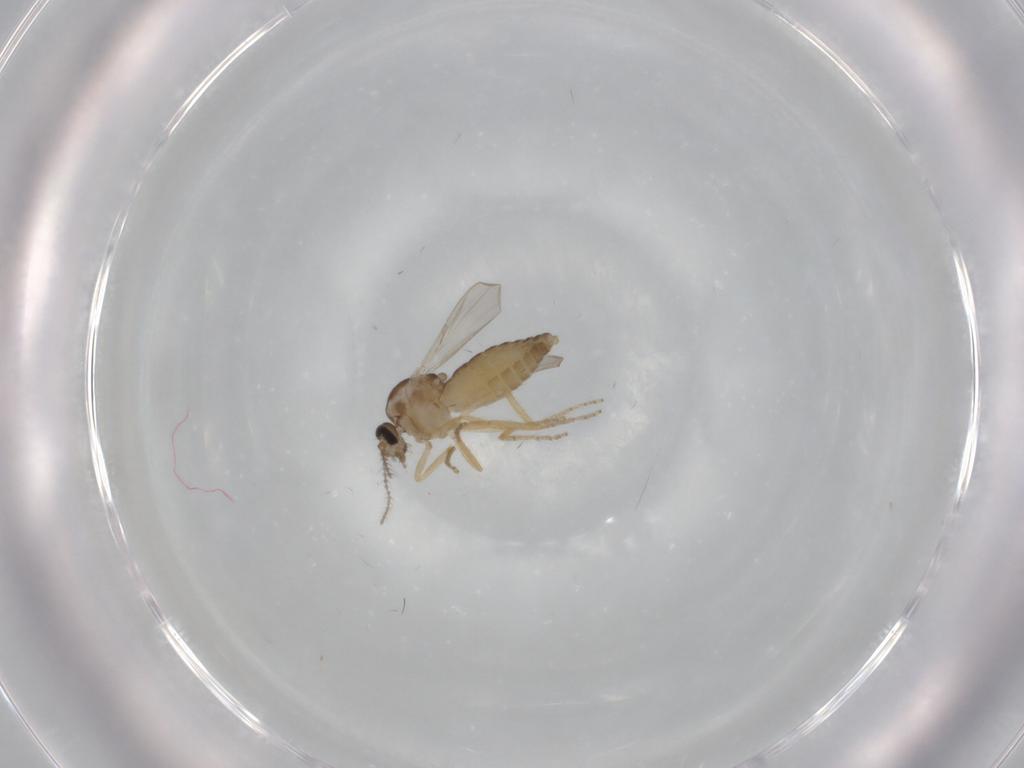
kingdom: Animalia
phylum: Arthropoda
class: Insecta
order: Diptera
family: Ceratopogonidae
